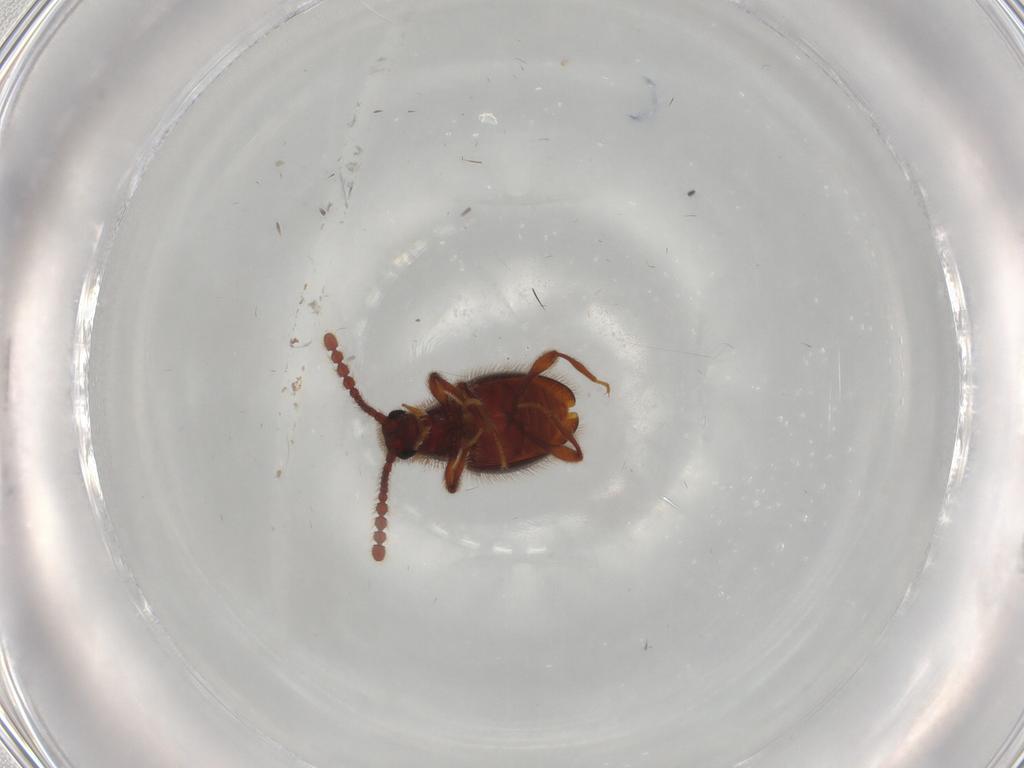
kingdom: Animalia
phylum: Arthropoda
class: Insecta
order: Coleoptera
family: Staphylinidae
